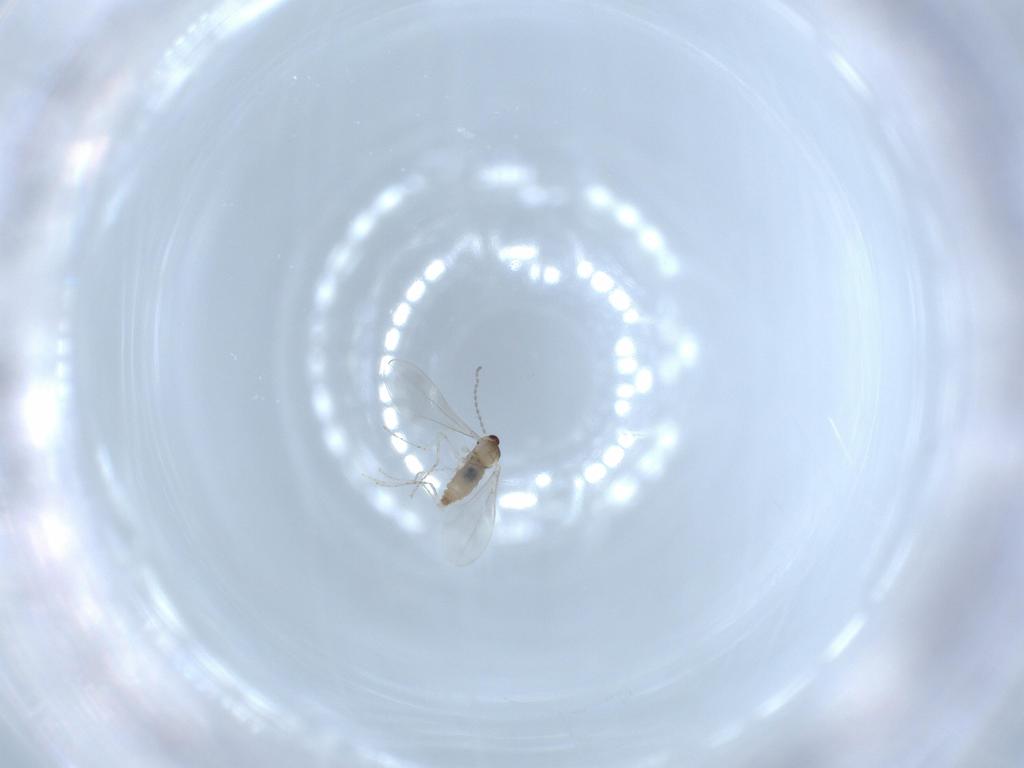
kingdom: Animalia
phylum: Arthropoda
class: Insecta
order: Diptera
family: Cecidomyiidae
